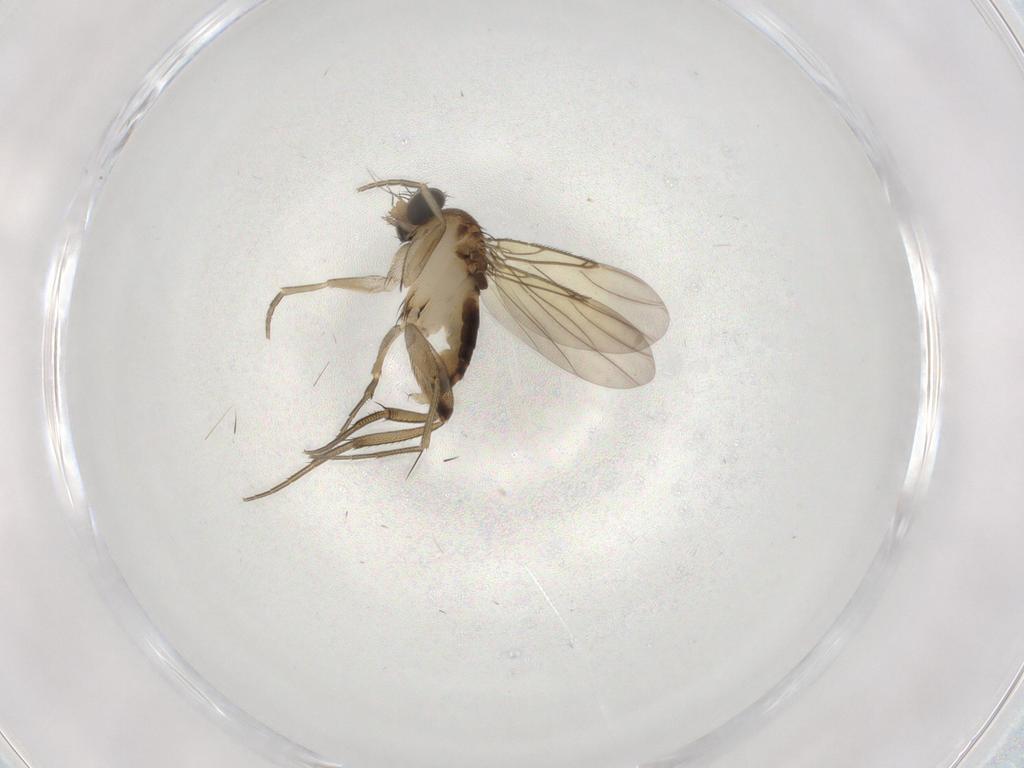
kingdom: Animalia
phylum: Arthropoda
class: Insecta
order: Diptera
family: Phoridae
